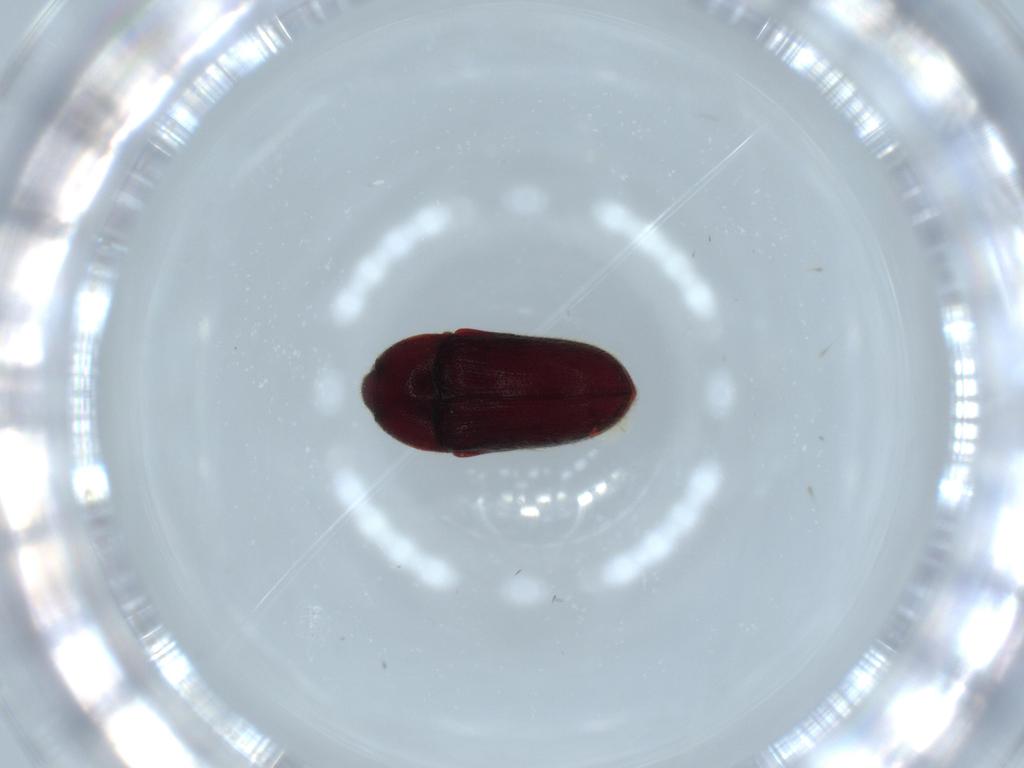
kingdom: Animalia
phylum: Arthropoda
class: Insecta
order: Coleoptera
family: Throscidae
